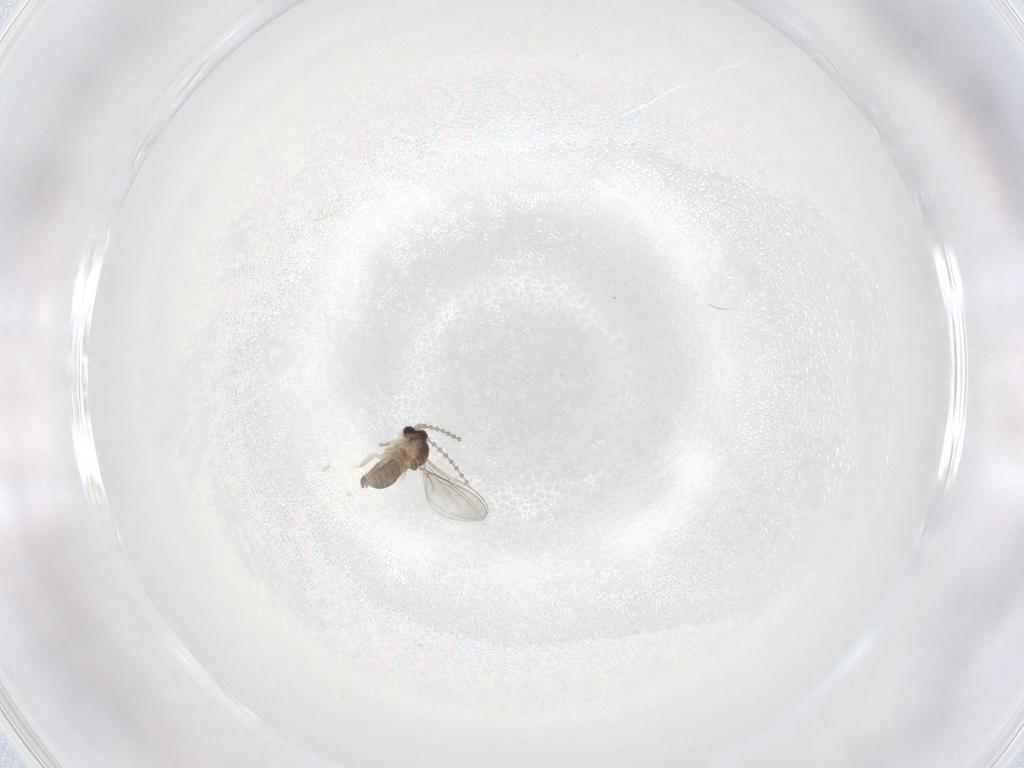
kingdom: Animalia
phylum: Arthropoda
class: Insecta
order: Diptera
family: Cecidomyiidae
